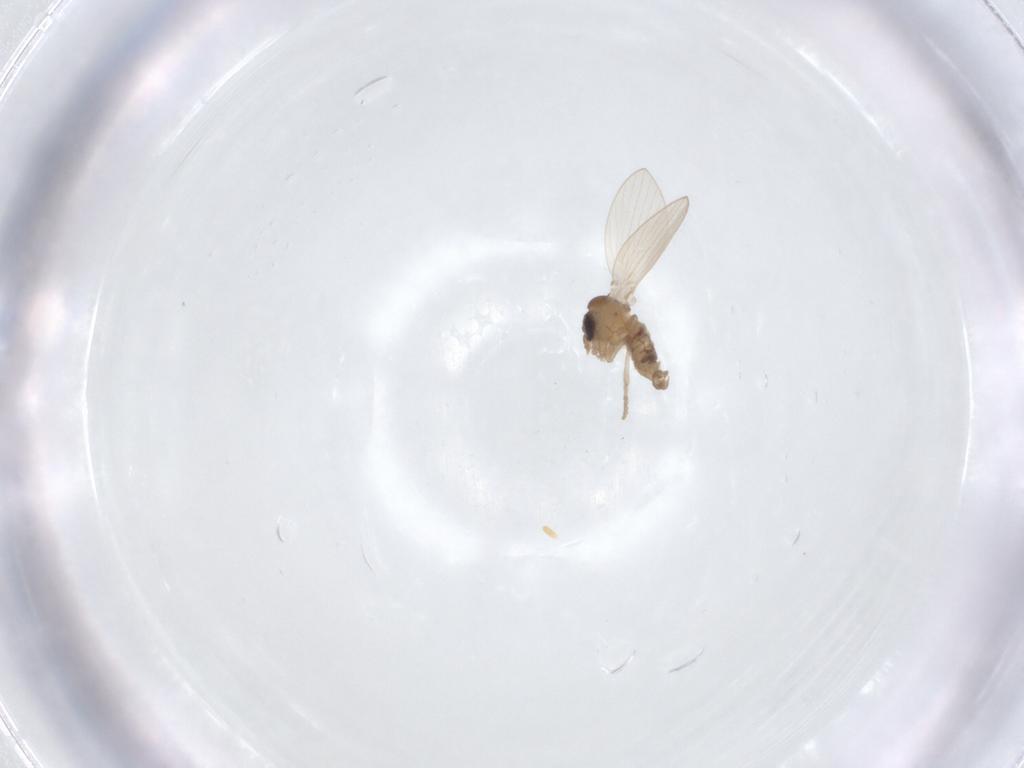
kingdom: Animalia
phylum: Arthropoda
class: Insecta
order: Diptera
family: Psychodidae
